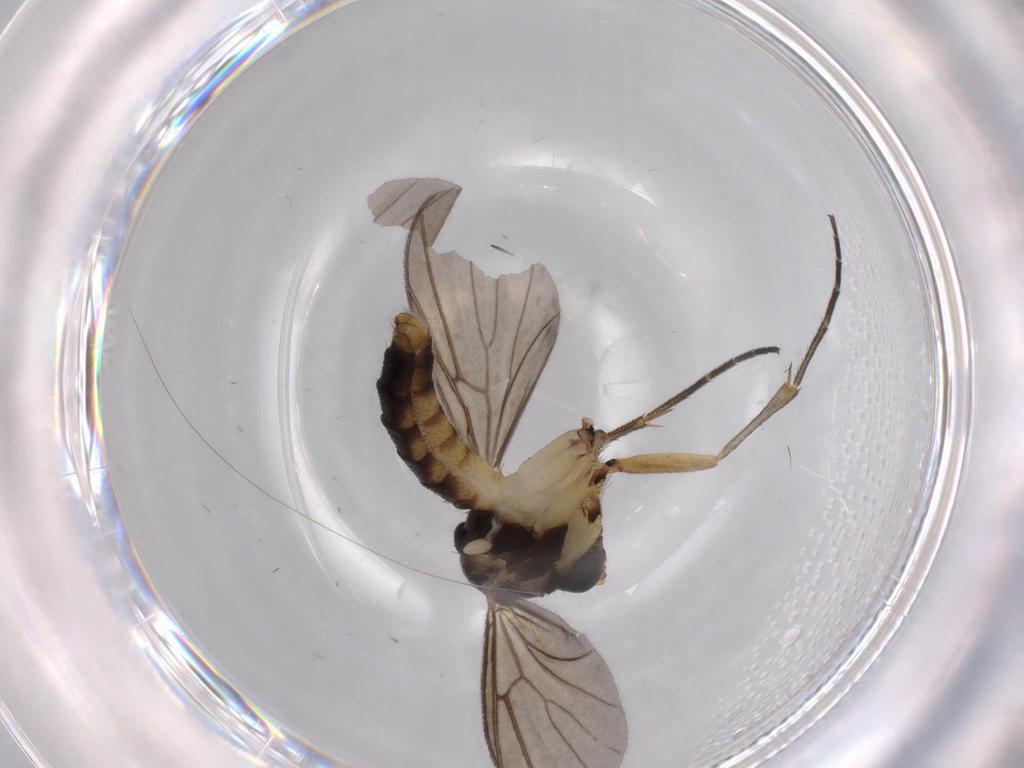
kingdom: Animalia
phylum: Arthropoda
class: Insecta
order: Diptera
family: Sciaridae
